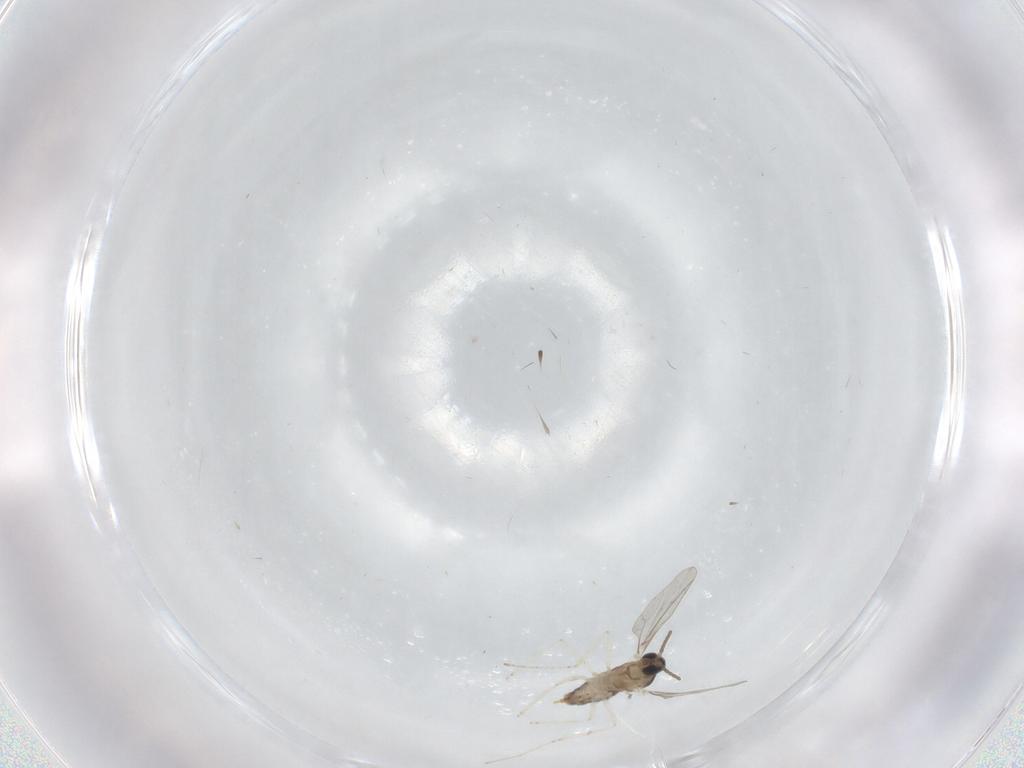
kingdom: Animalia
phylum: Arthropoda
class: Insecta
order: Diptera
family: Cecidomyiidae
